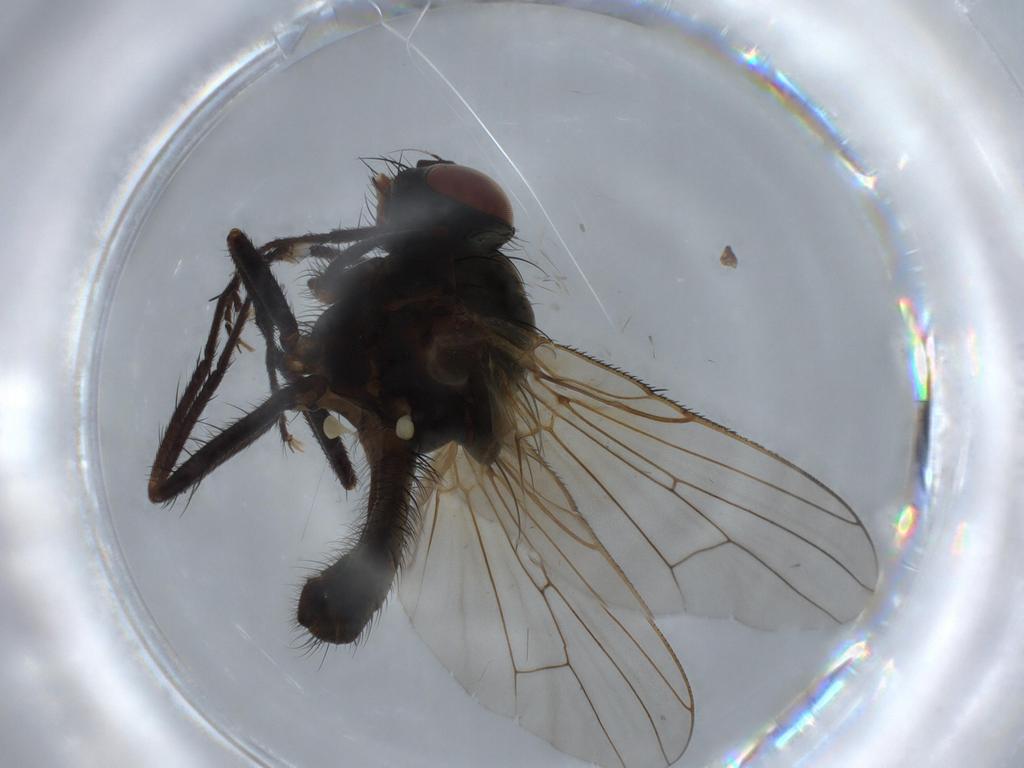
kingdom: Animalia
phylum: Arthropoda
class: Insecta
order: Diptera
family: Anthomyiidae
